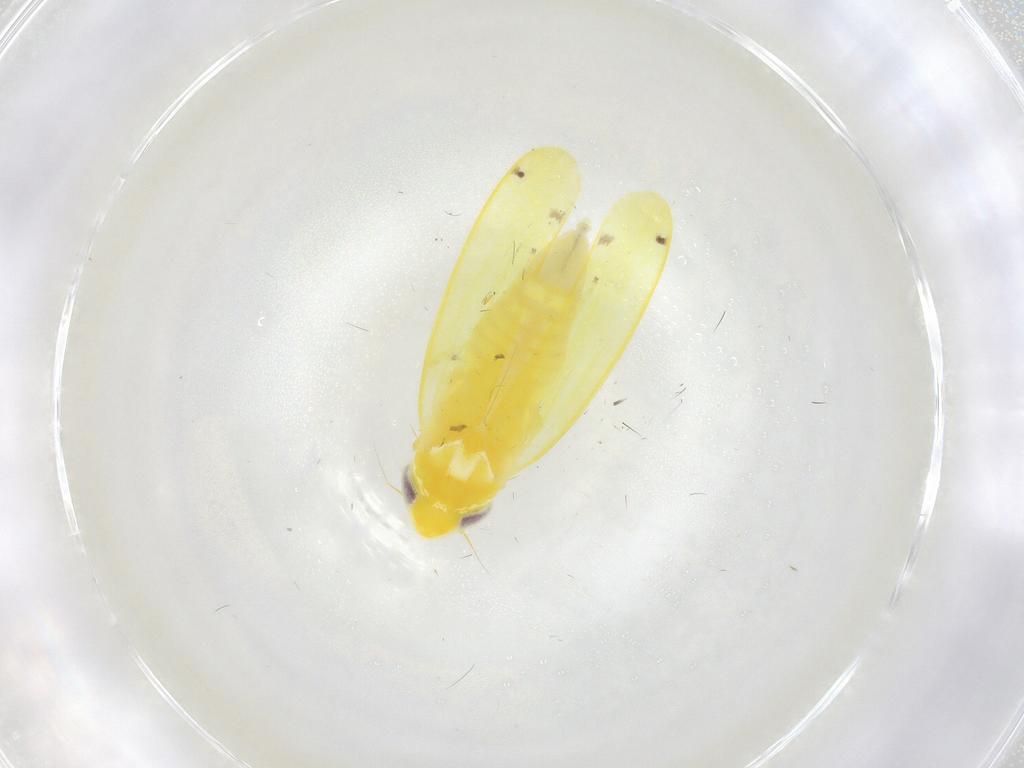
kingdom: Animalia
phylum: Arthropoda
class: Insecta
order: Hemiptera
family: Cicadellidae
